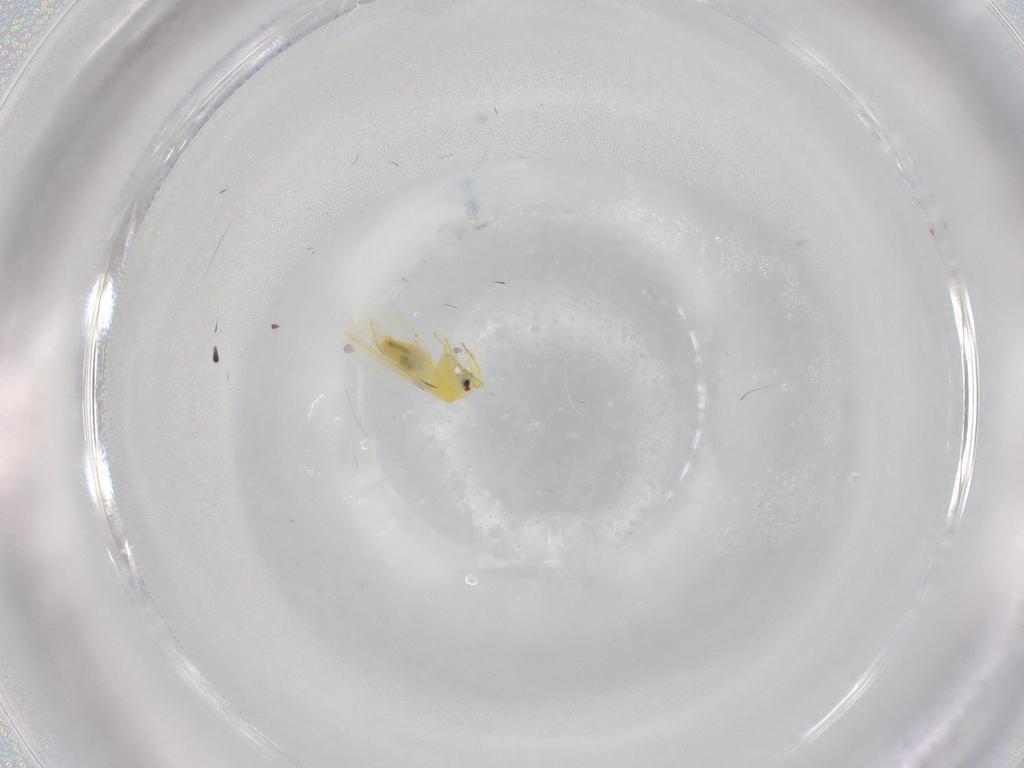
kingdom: Animalia
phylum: Arthropoda
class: Insecta
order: Hemiptera
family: Aleyrodidae
